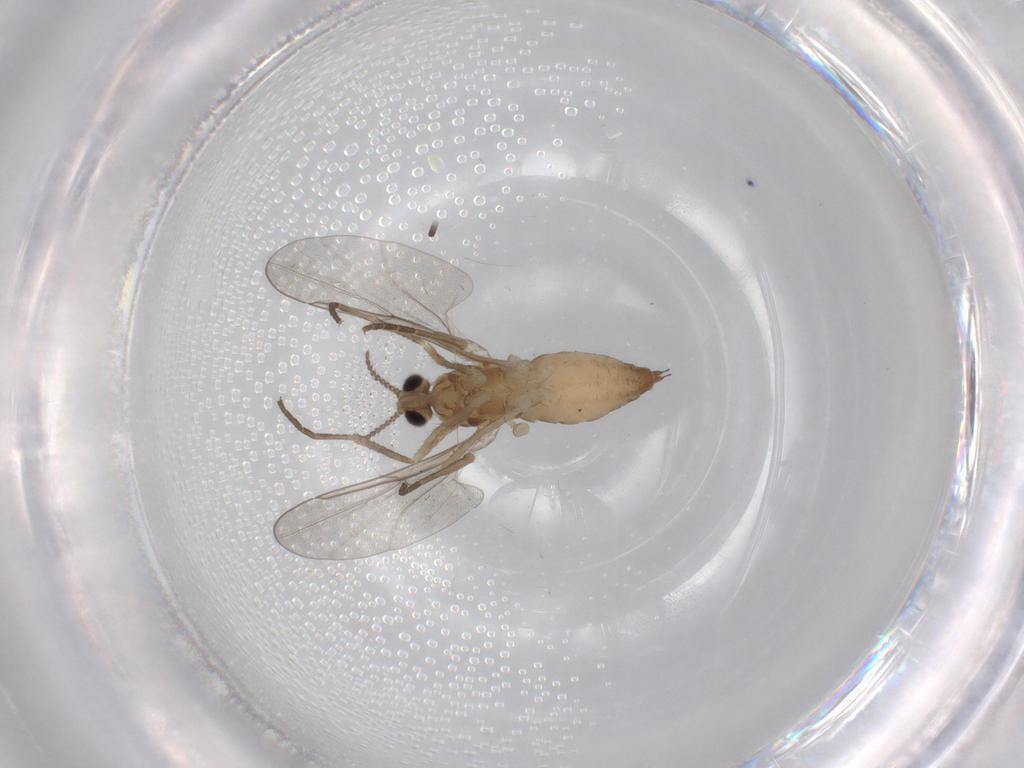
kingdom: Animalia
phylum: Arthropoda
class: Insecta
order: Diptera
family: Cecidomyiidae
